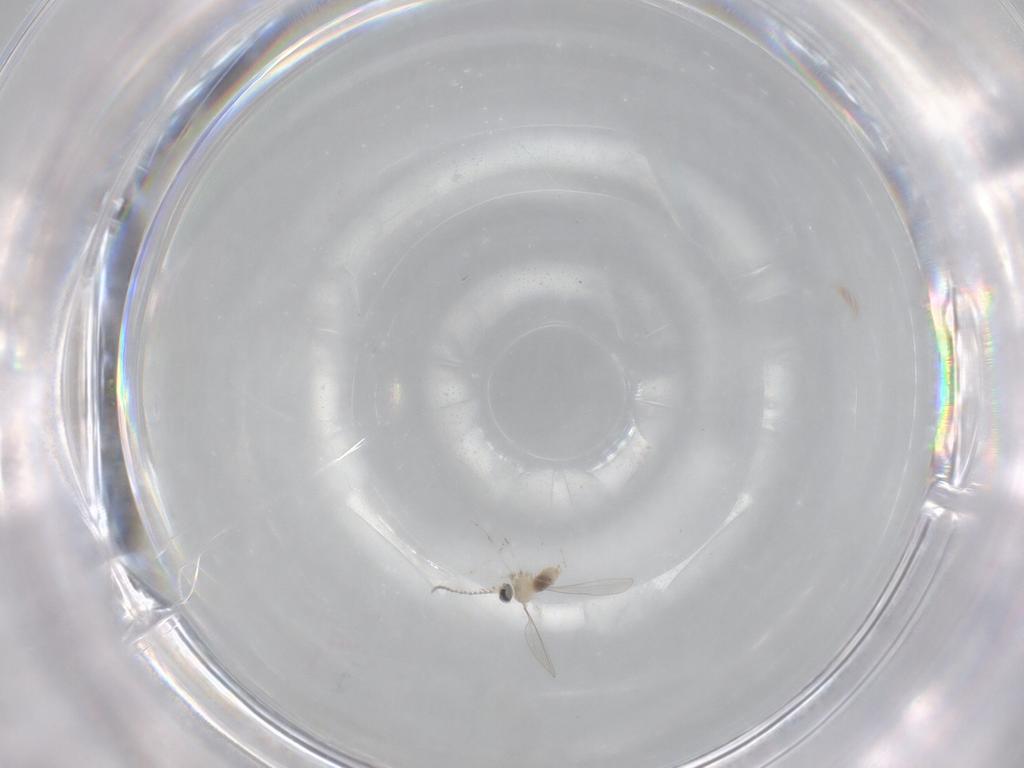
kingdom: Animalia
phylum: Arthropoda
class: Insecta
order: Diptera
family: Cecidomyiidae
